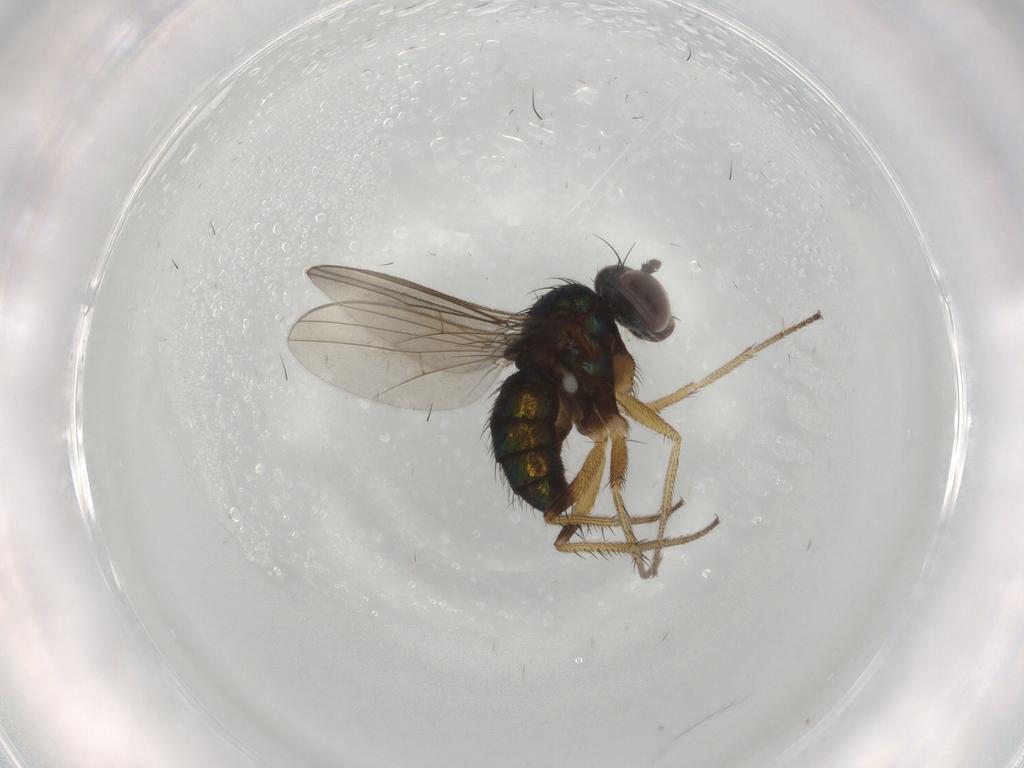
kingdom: Animalia
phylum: Arthropoda
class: Insecta
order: Diptera
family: Dolichopodidae
